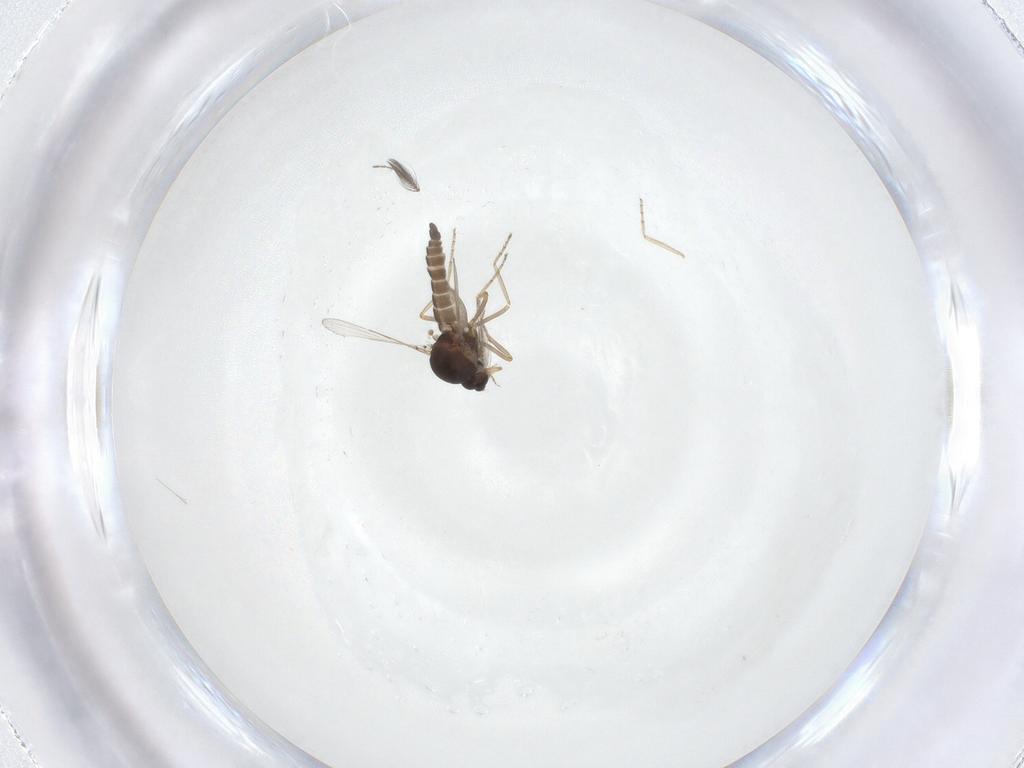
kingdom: Animalia
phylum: Arthropoda
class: Insecta
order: Diptera
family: Ceratopogonidae
